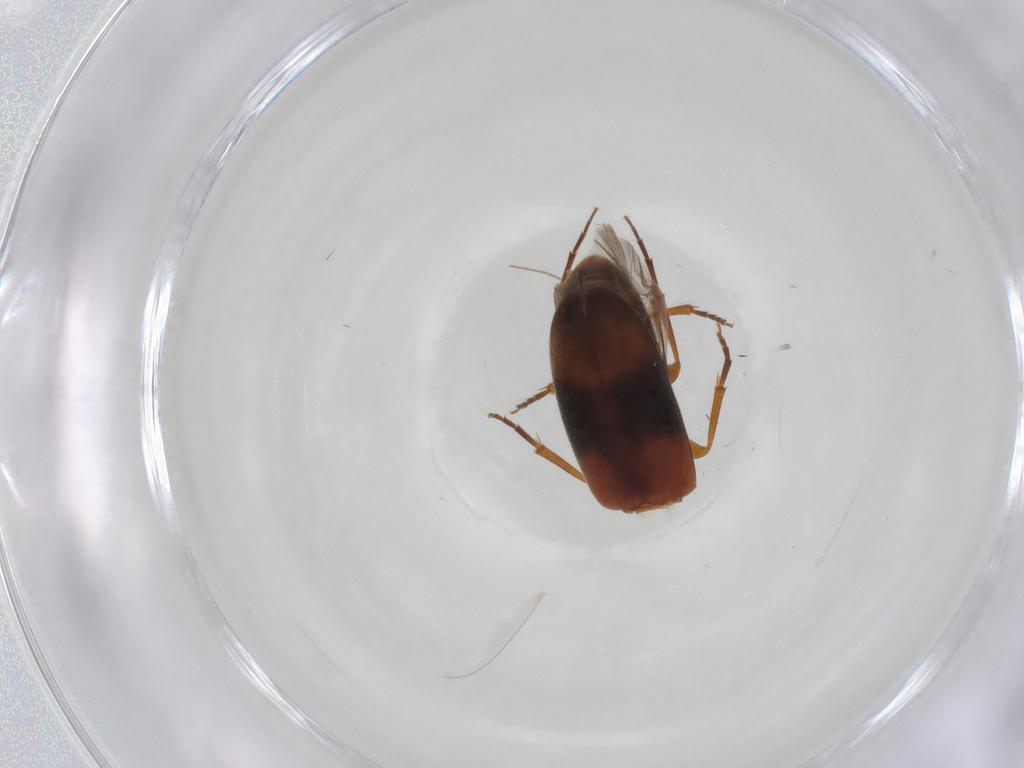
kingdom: Animalia
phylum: Arthropoda
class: Insecta
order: Coleoptera
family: Scraptiidae
